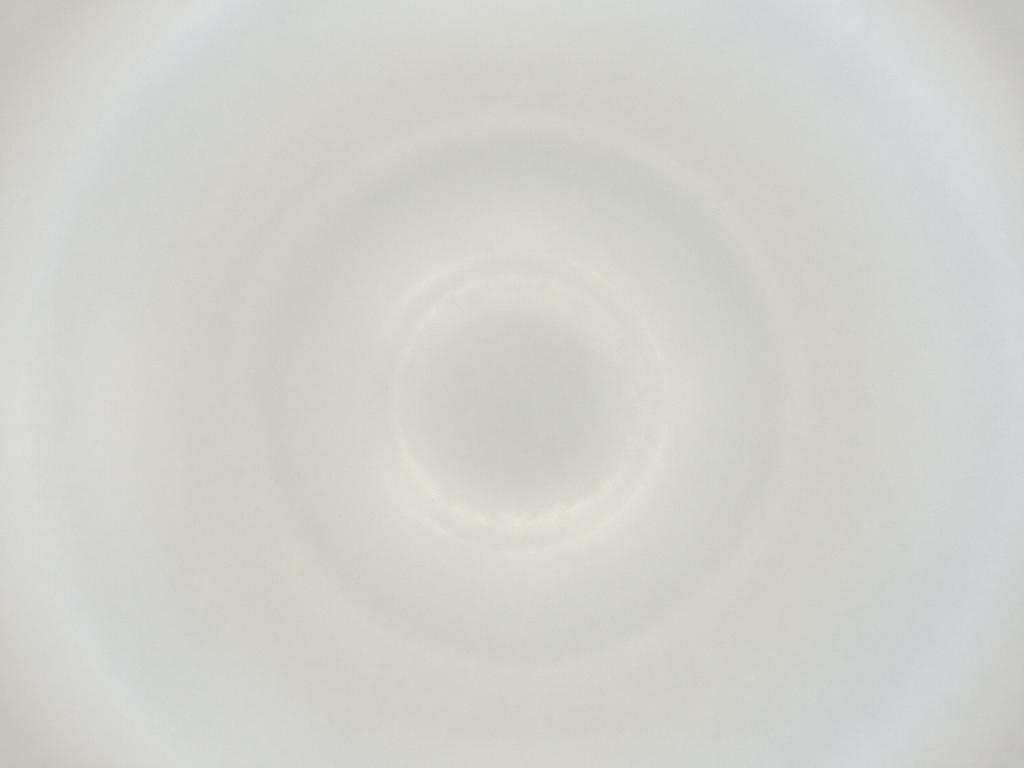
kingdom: Animalia
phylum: Arthropoda
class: Insecta
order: Diptera
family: Cecidomyiidae
